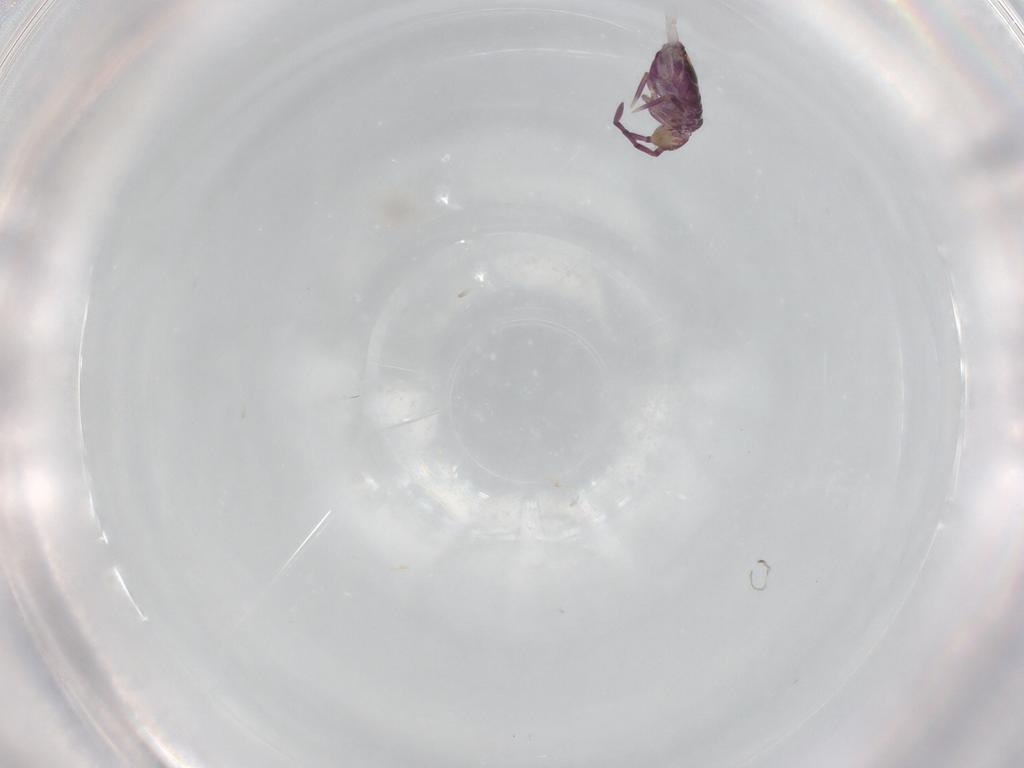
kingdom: Animalia
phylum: Arthropoda
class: Collembola
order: Entomobryomorpha
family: Entomobryidae
